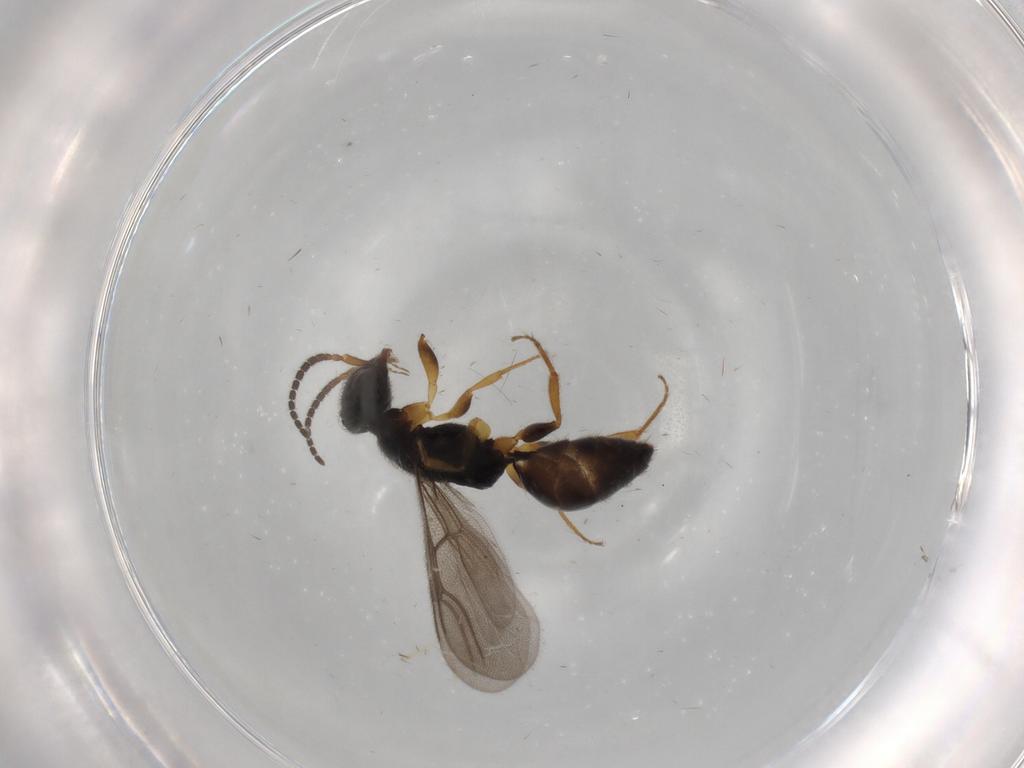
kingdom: Animalia
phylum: Arthropoda
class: Insecta
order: Hymenoptera
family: Bethylidae
